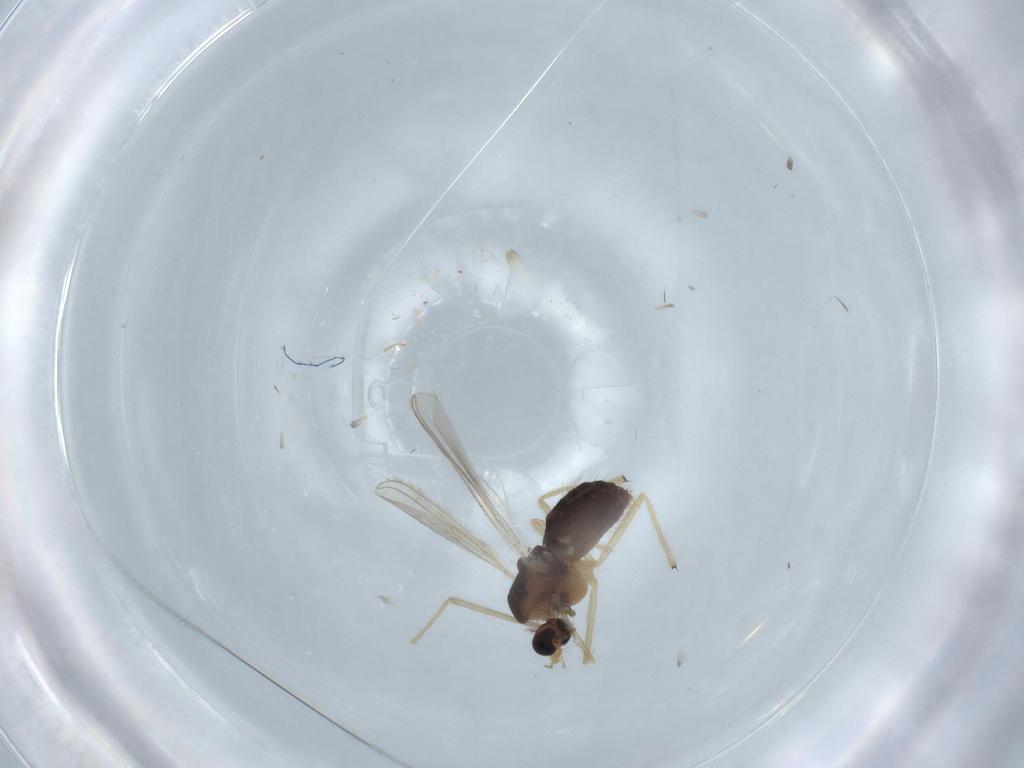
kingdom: Animalia
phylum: Arthropoda
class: Insecta
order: Diptera
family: Chironomidae
